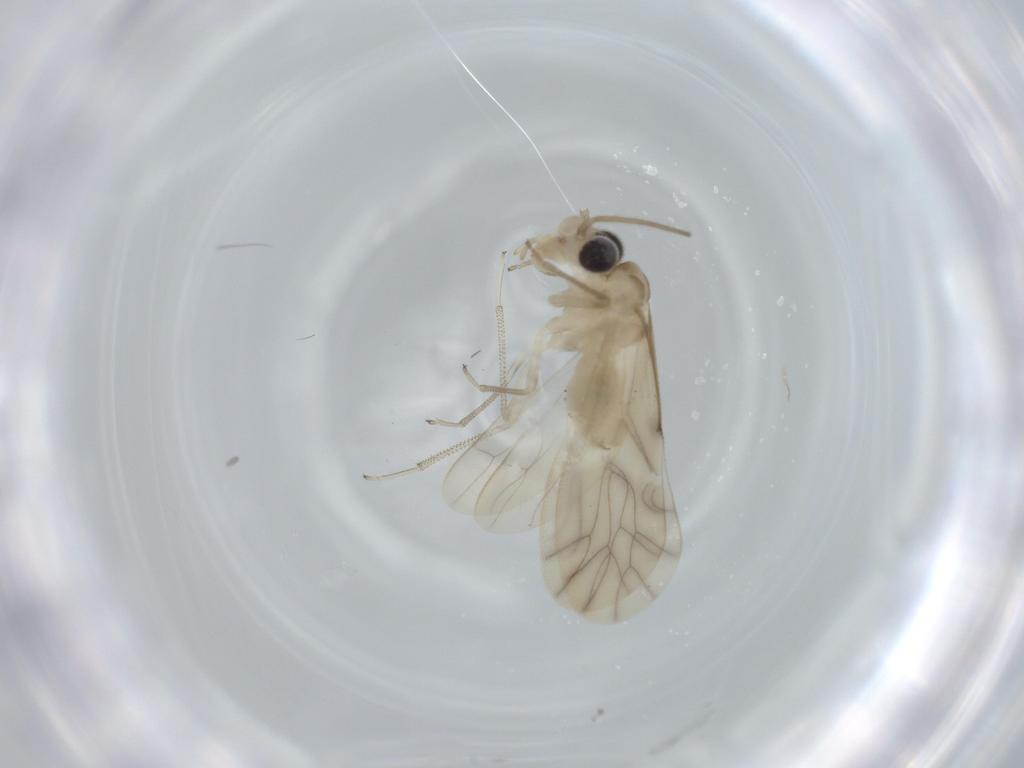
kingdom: Animalia
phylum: Arthropoda
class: Insecta
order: Psocodea
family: Caeciliusidae
